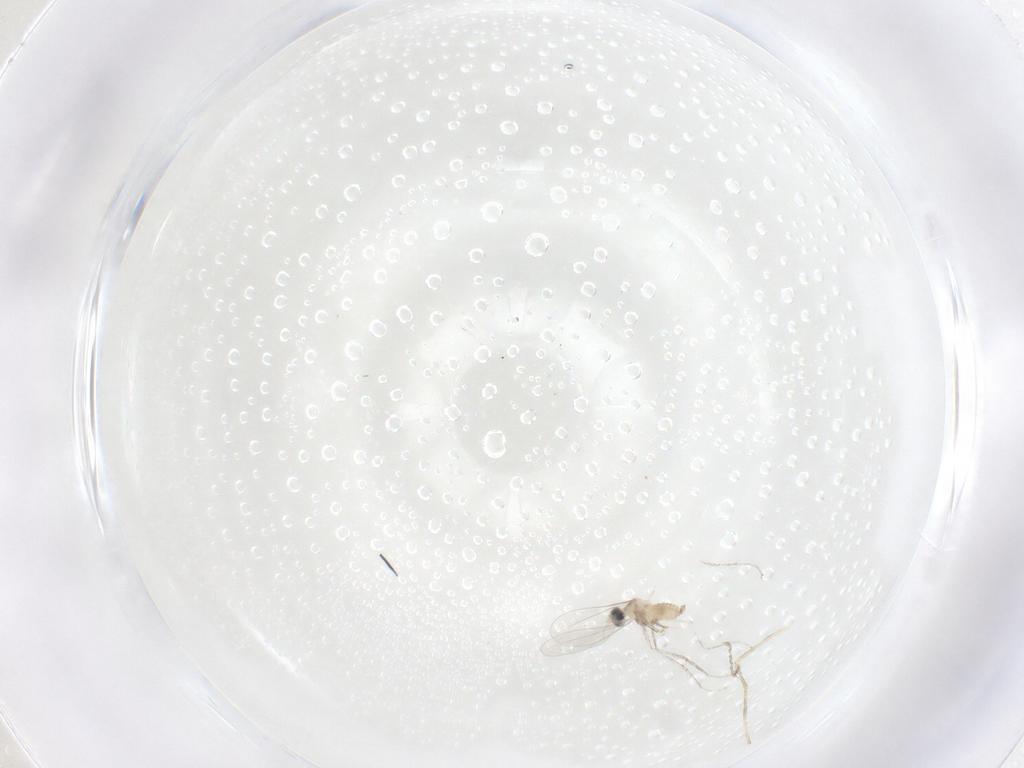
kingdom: Animalia
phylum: Arthropoda
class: Insecta
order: Diptera
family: Cecidomyiidae
